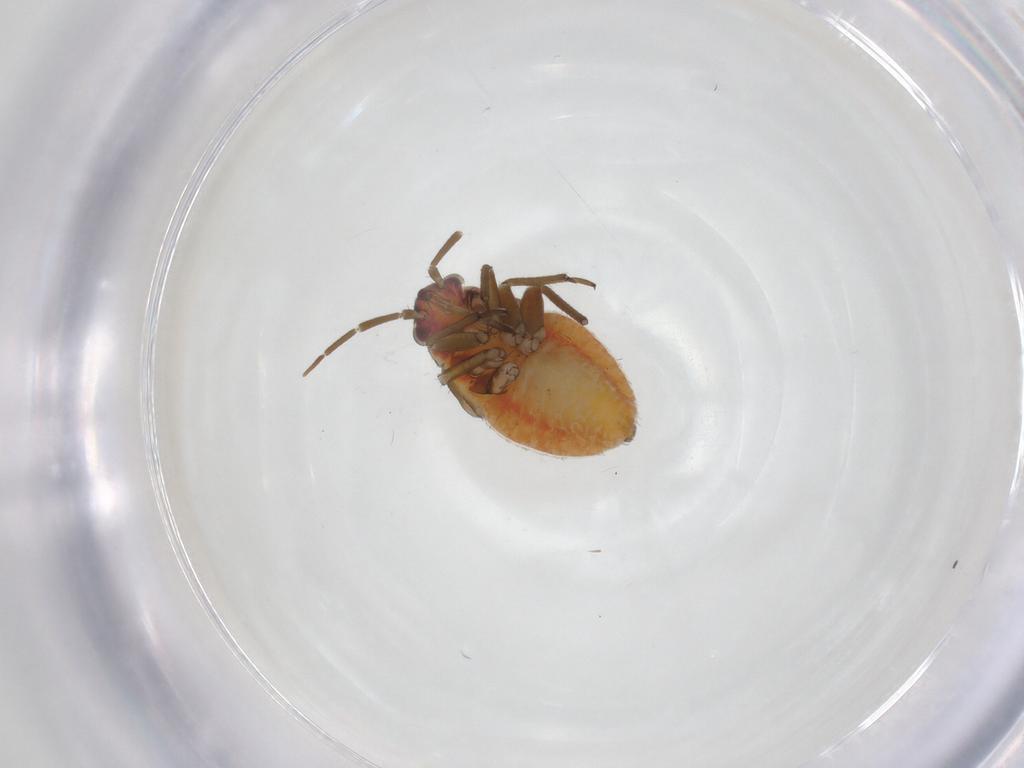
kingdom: Animalia
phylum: Arthropoda
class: Insecta
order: Hemiptera
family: Miridae
